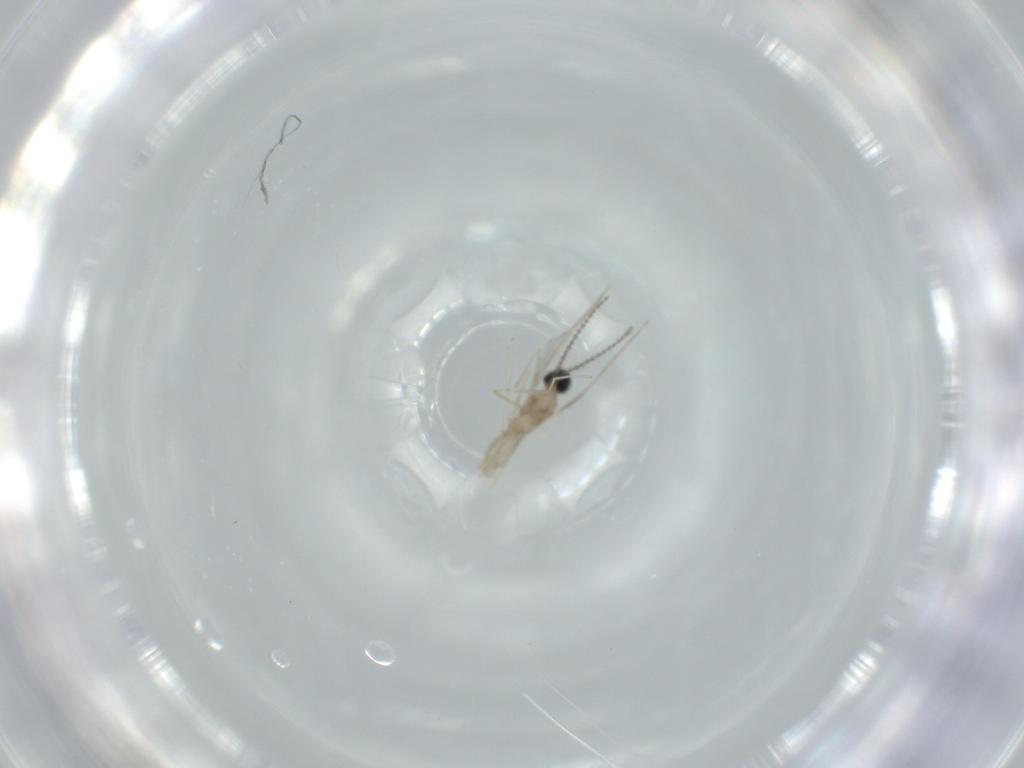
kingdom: Animalia
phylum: Arthropoda
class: Insecta
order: Diptera
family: Cecidomyiidae
